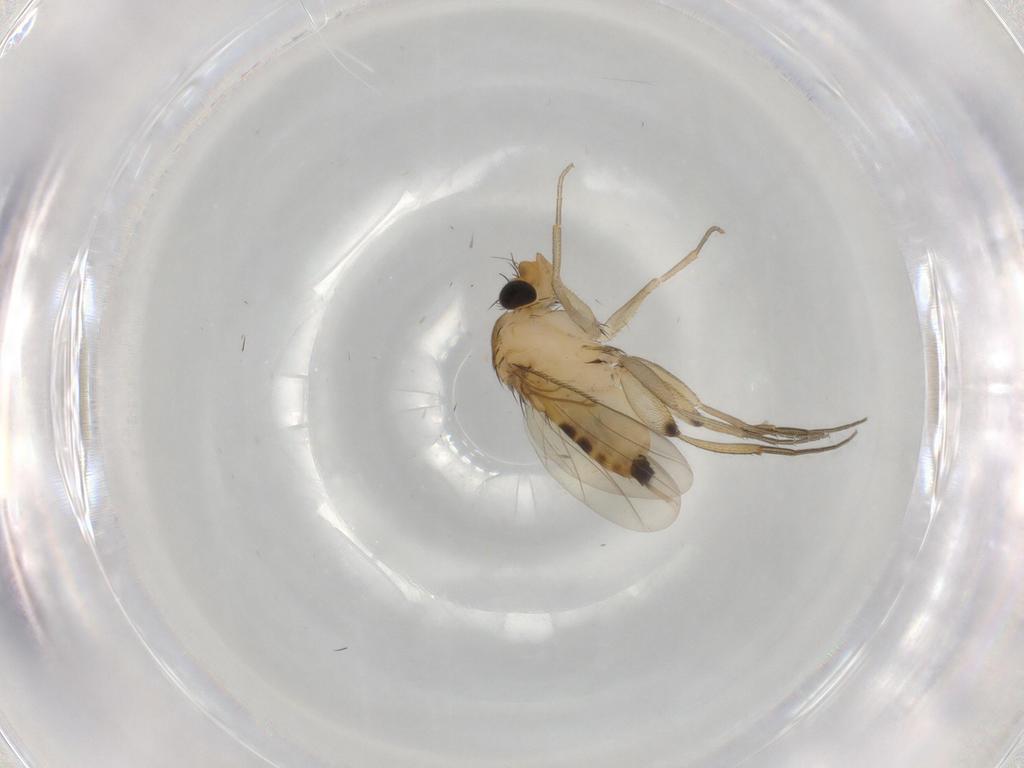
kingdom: Animalia
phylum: Arthropoda
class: Insecta
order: Diptera
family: Phoridae
